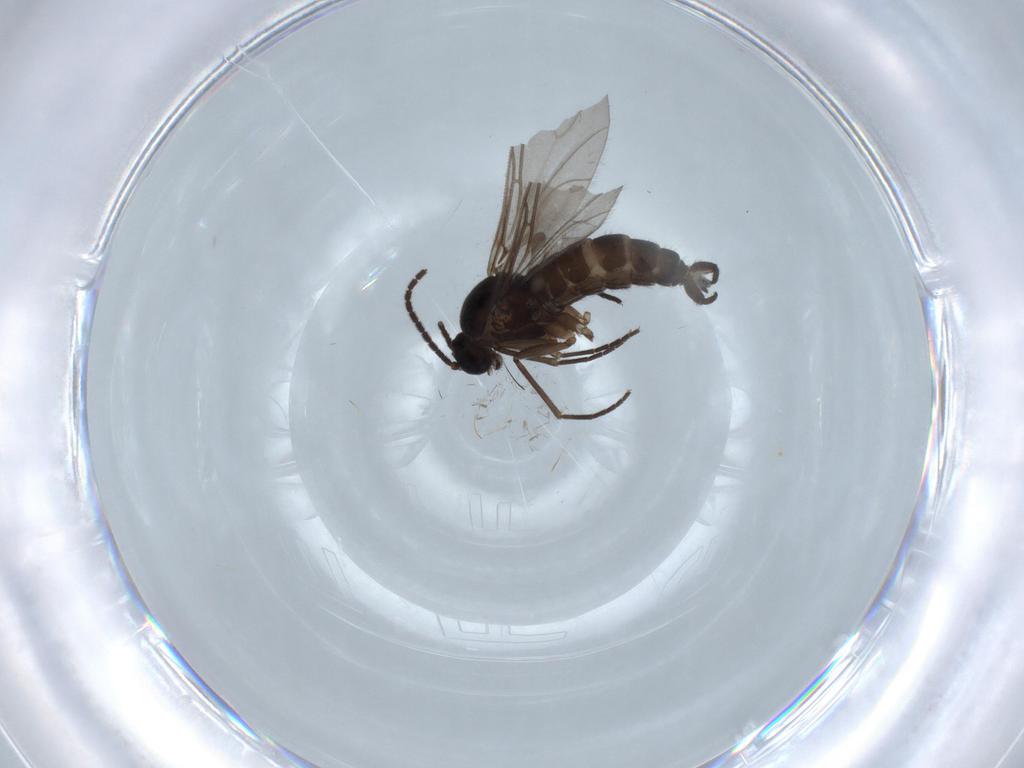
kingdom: Animalia
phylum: Arthropoda
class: Insecta
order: Diptera
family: Sciaridae
